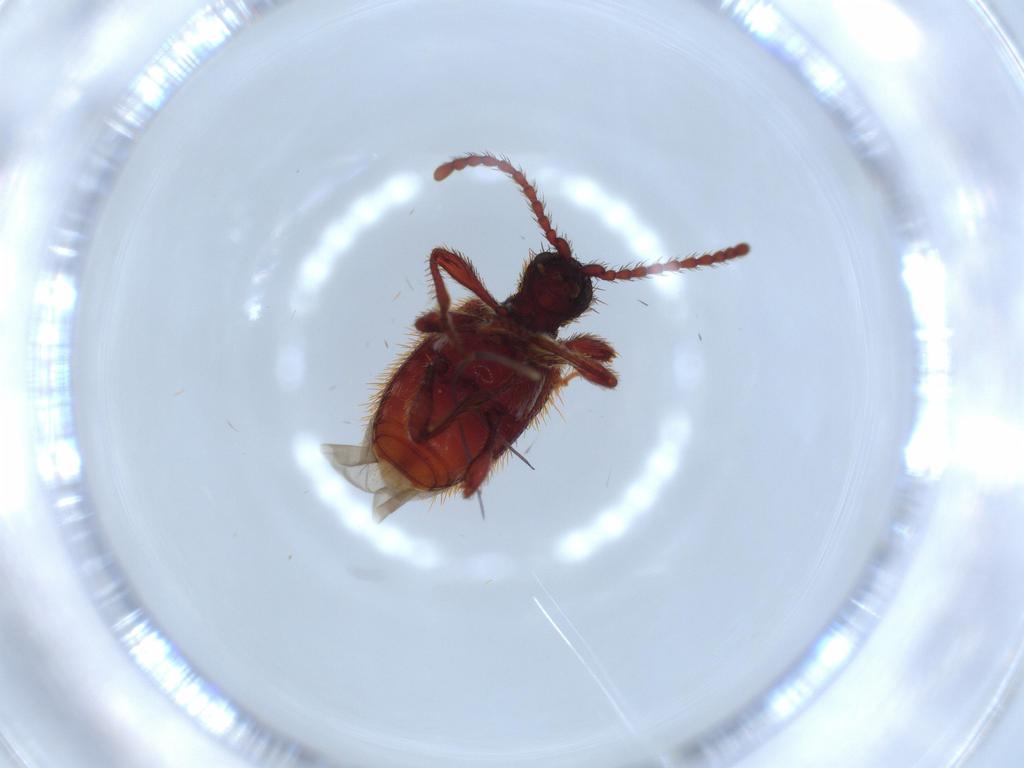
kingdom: Animalia
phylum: Arthropoda
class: Insecta
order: Coleoptera
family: Ptinidae
